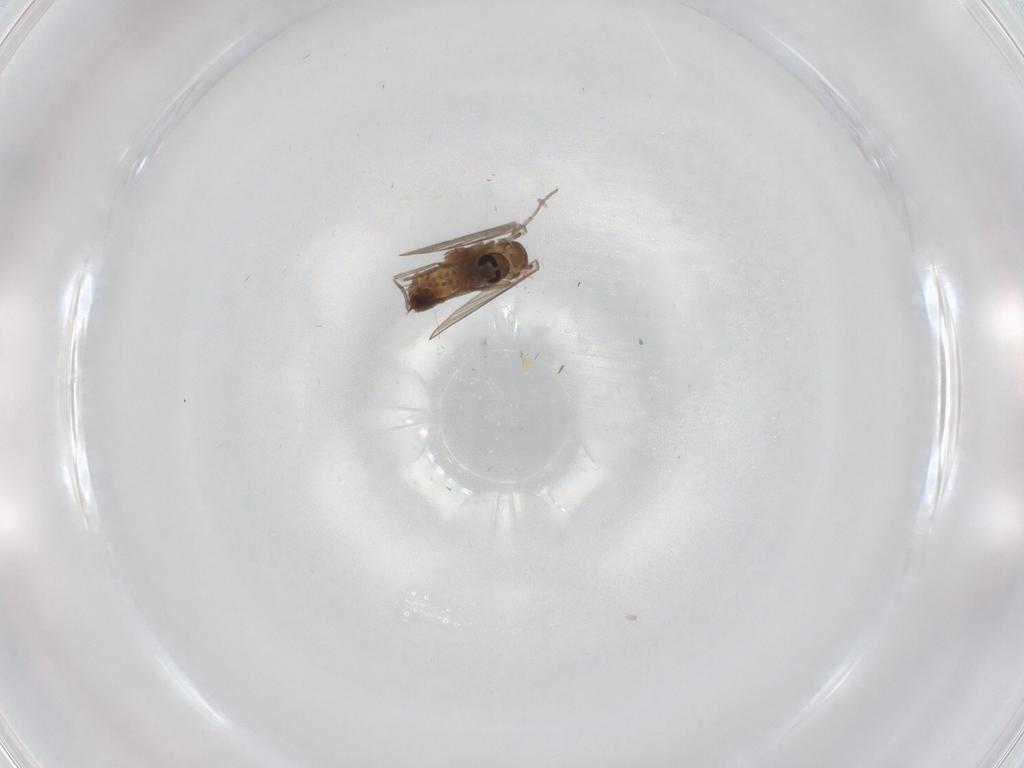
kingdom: Animalia
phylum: Arthropoda
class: Insecta
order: Diptera
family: Psychodidae
